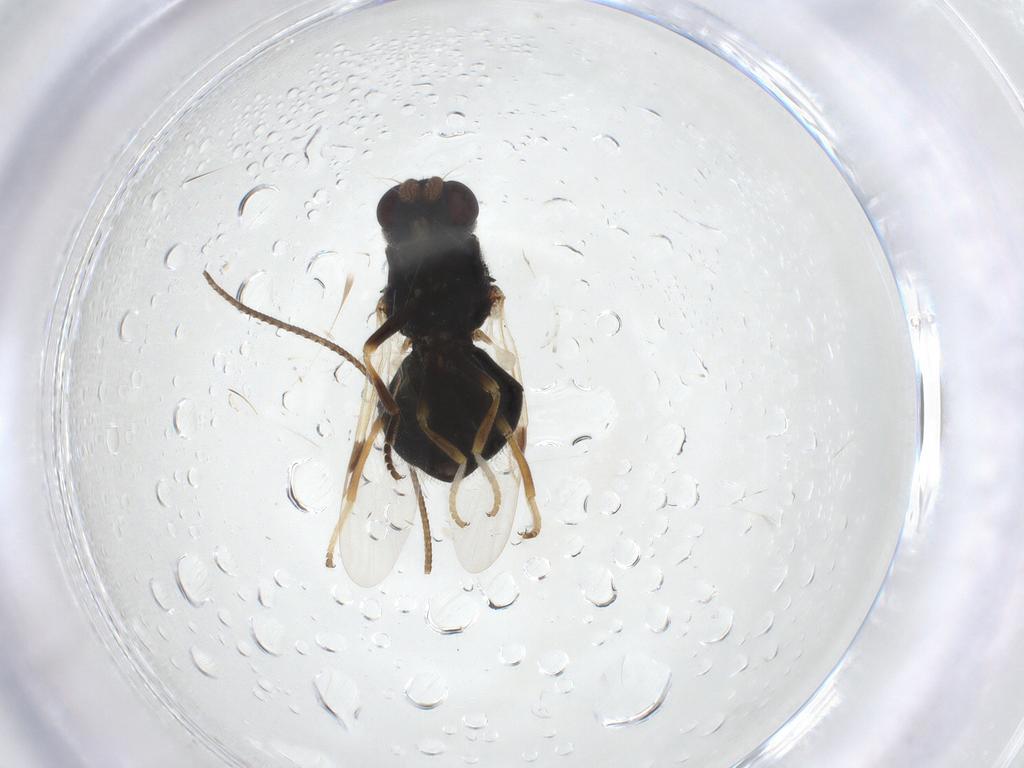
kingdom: Animalia
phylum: Arthropoda
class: Insecta
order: Diptera
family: Stratiomyidae
